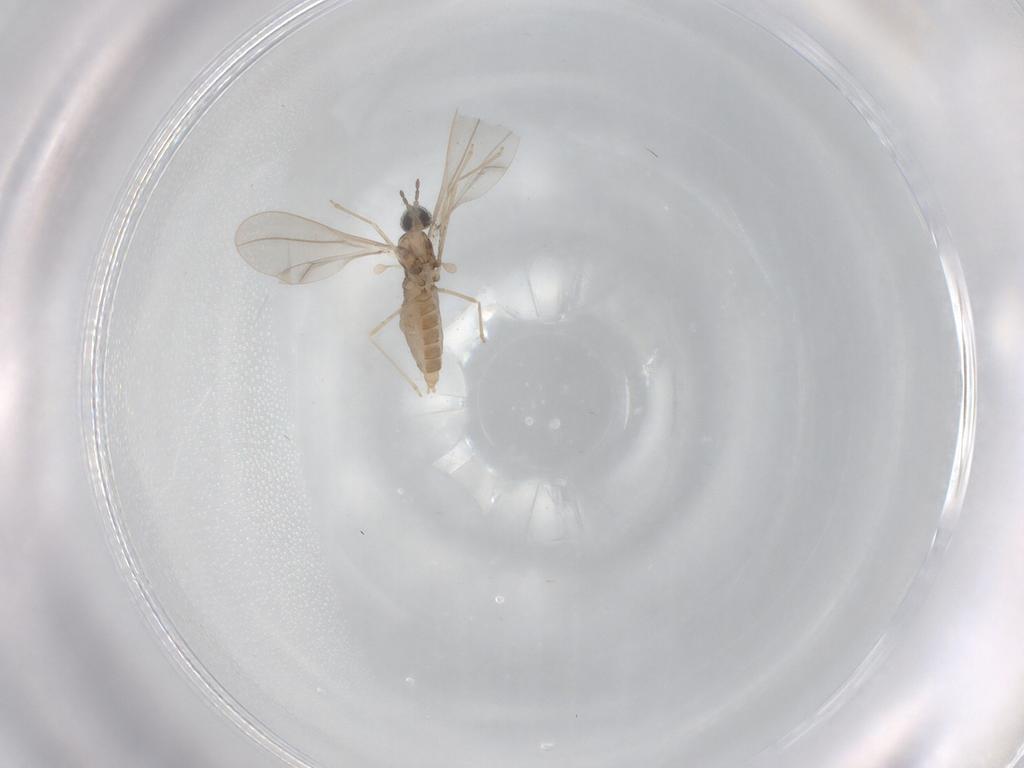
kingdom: Animalia
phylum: Arthropoda
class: Insecta
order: Diptera
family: Cecidomyiidae
